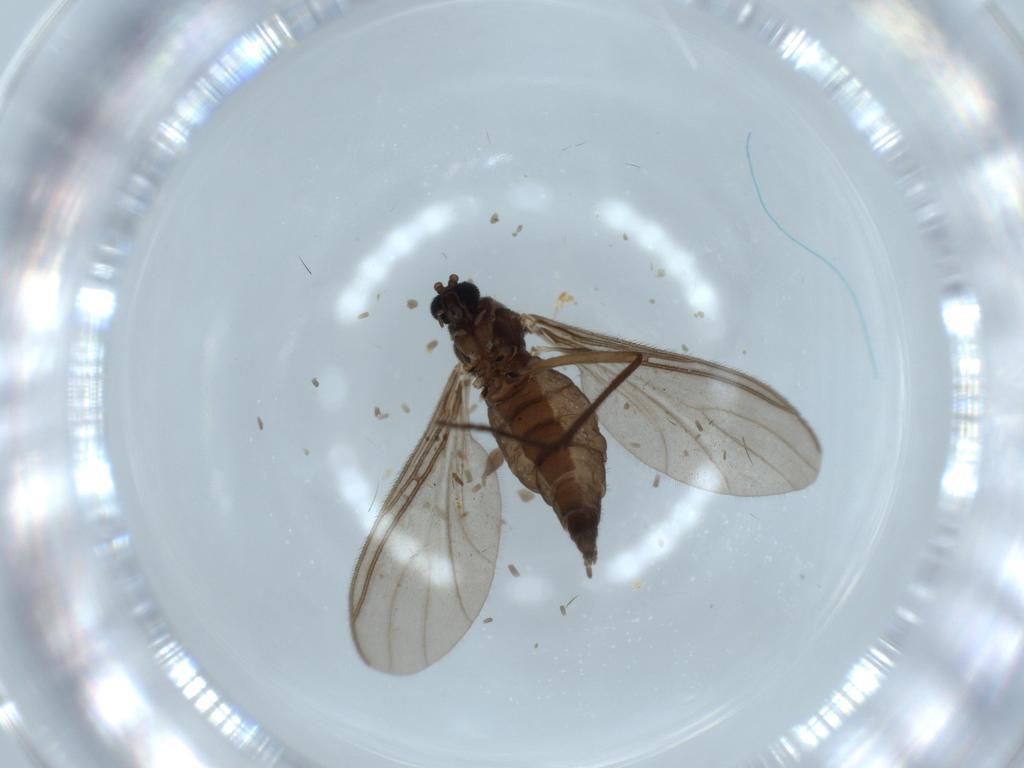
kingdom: Animalia
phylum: Arthropoda
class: Insecta
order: Diptera
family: Sciaridae
